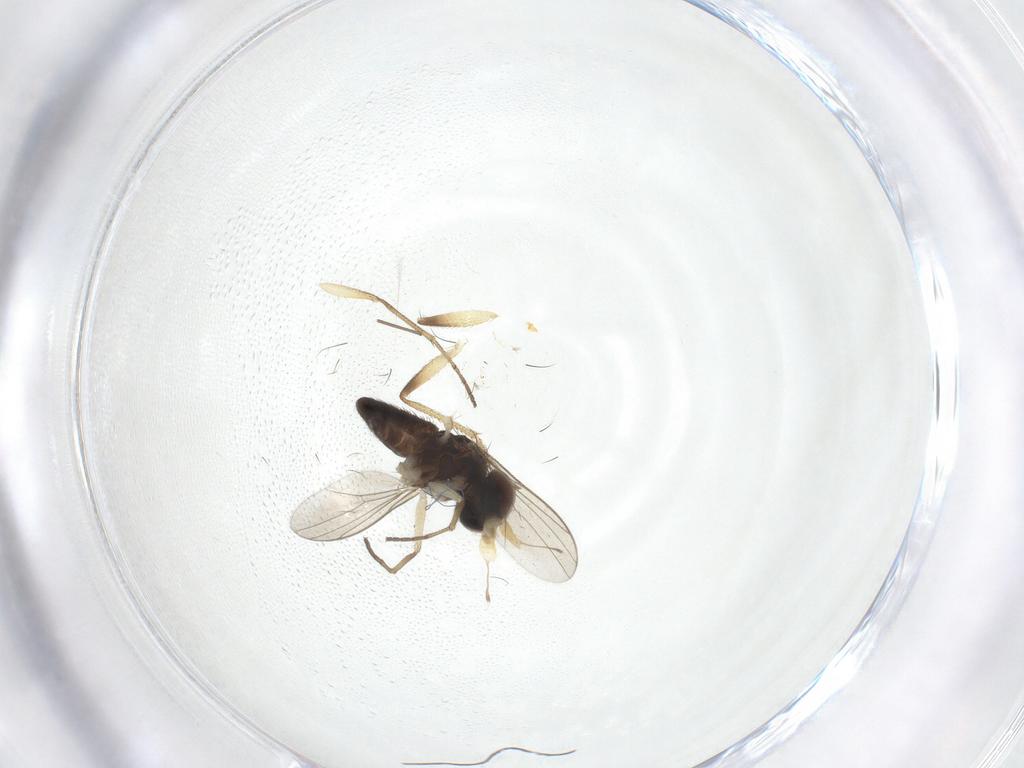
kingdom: Animalia
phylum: Arthropoda
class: Insecta
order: Diptera
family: Dolichopodidae
